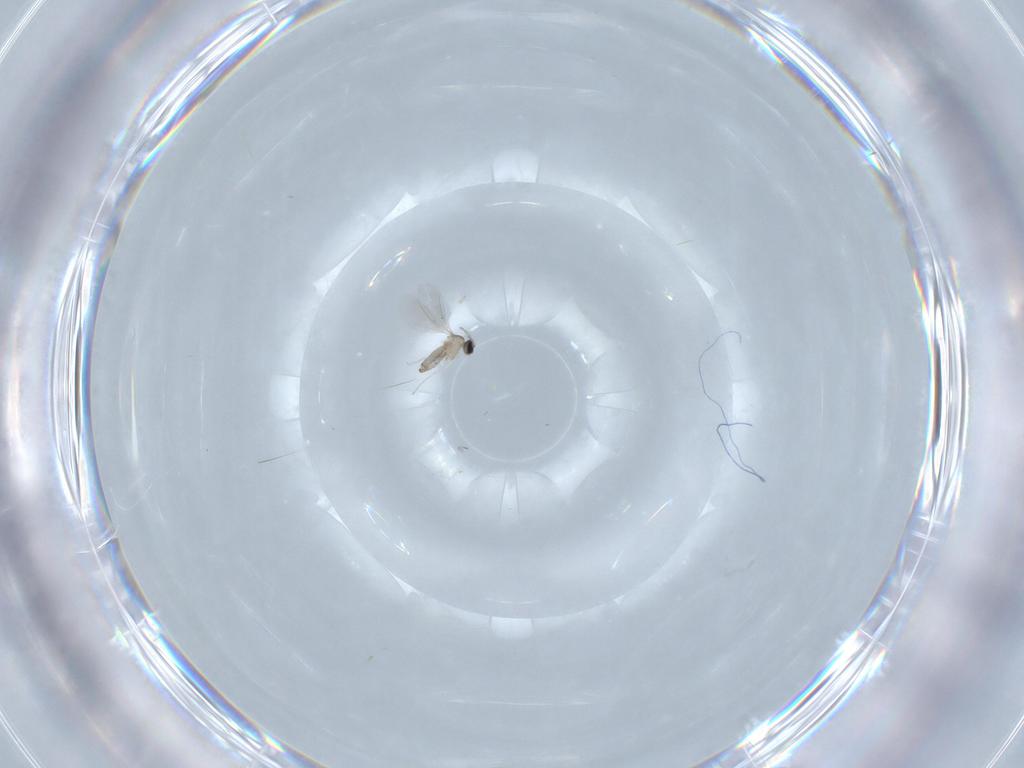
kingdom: Animalia
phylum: Arthropoda
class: Insecta
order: Diptera
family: Cecidomyiidae
